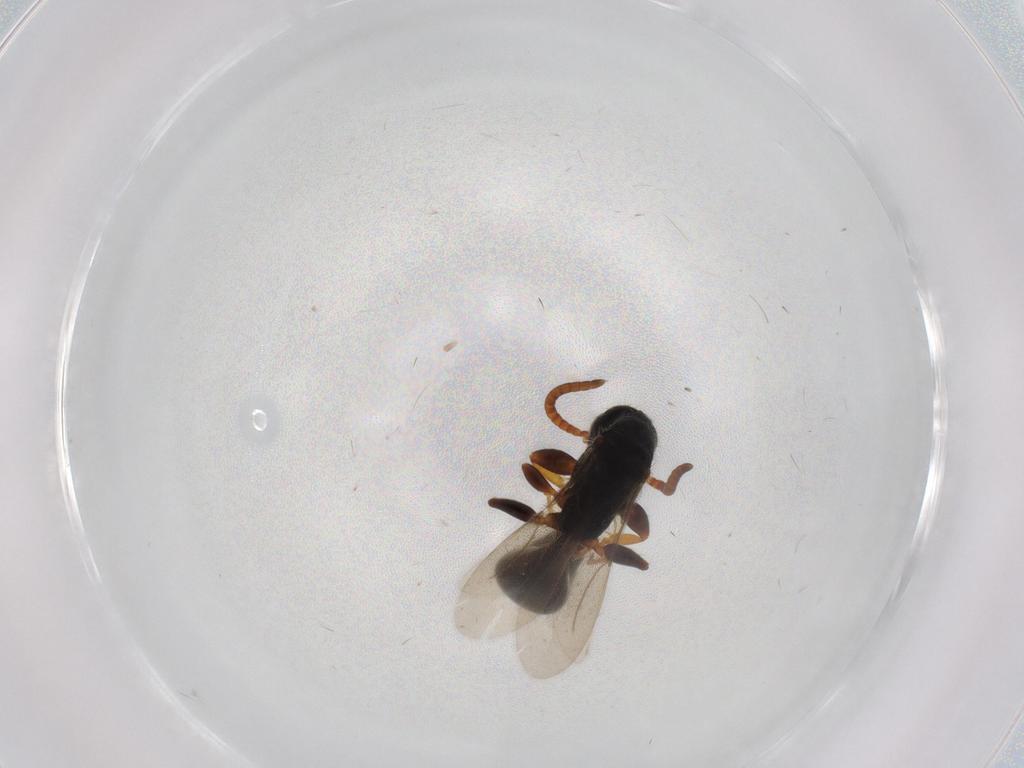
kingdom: Animalia
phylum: Arthropoda
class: Insecta
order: Hymenoptera
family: Bethylidae
